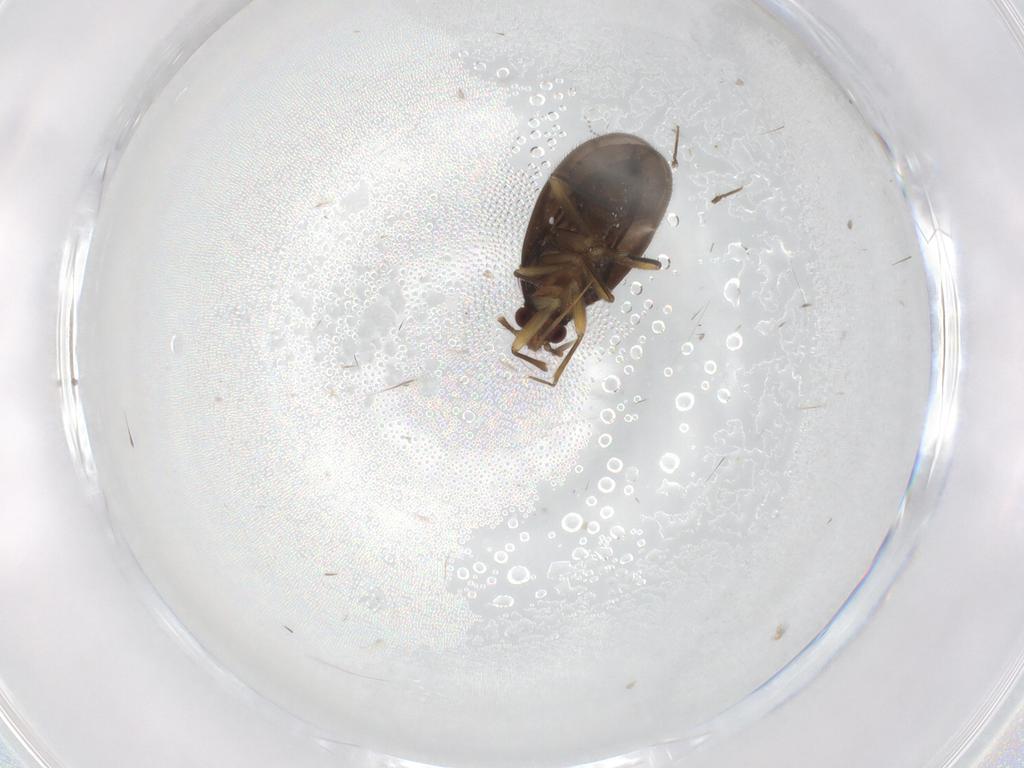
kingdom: Animalia
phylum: Arthropoda
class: Insecta
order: Hemiptera
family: Ceratocombidae
